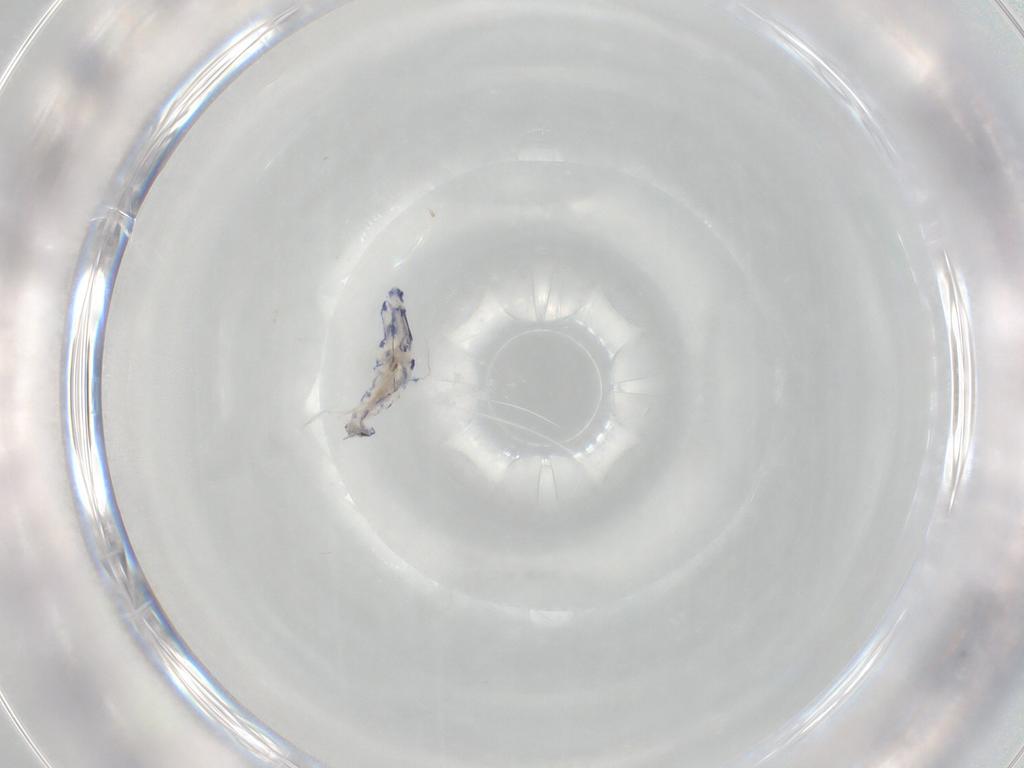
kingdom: Animalia
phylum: Arthropoda
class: Collembola
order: Entomobryomorpha
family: Entomobryidae
